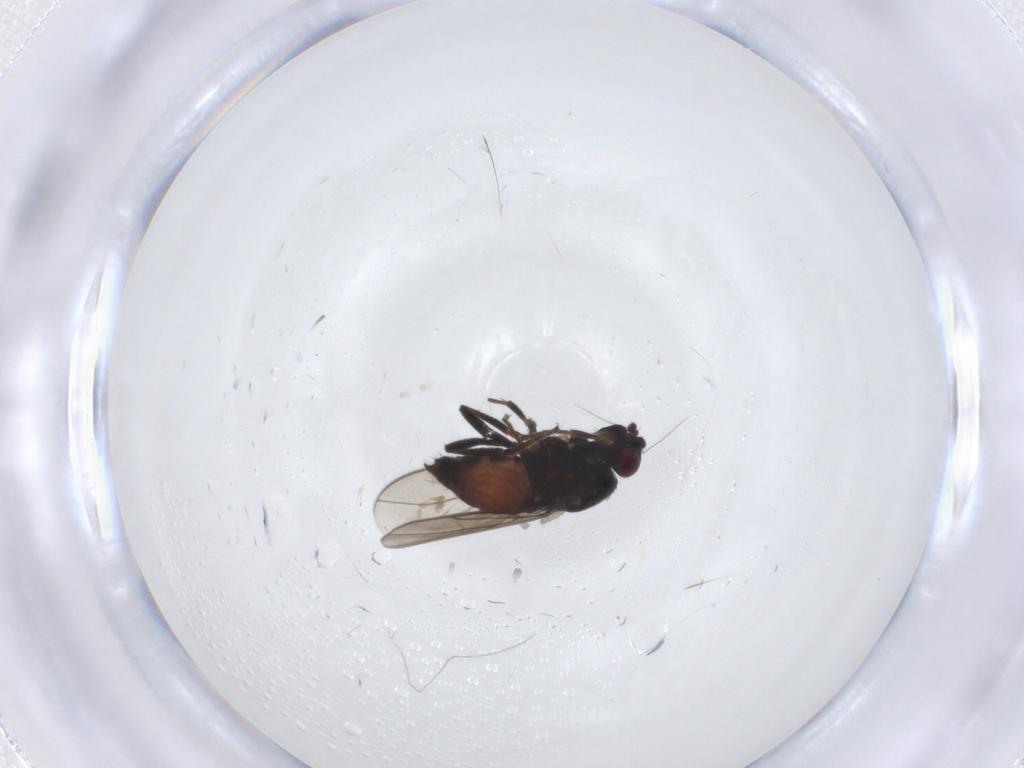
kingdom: Animalia
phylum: Arthropoda
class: Insecta
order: Diptera
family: Sphaeroceridae
